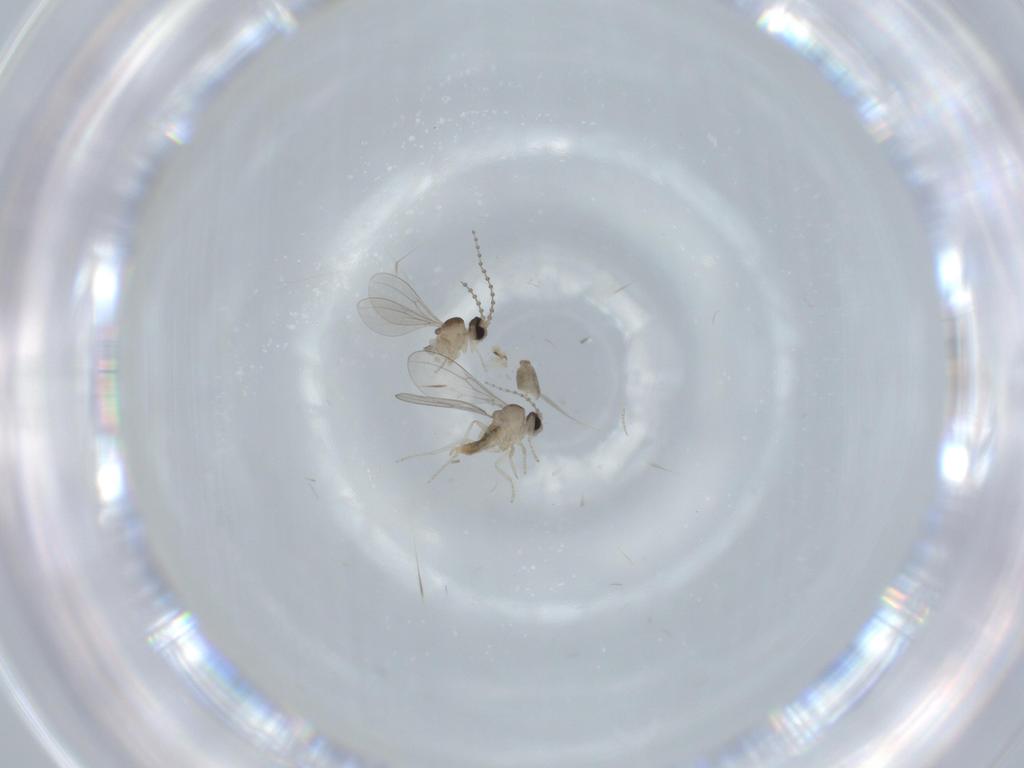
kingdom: Animalia
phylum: Arthropoda
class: Insecta
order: Diptera
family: Cecidomyiidae
